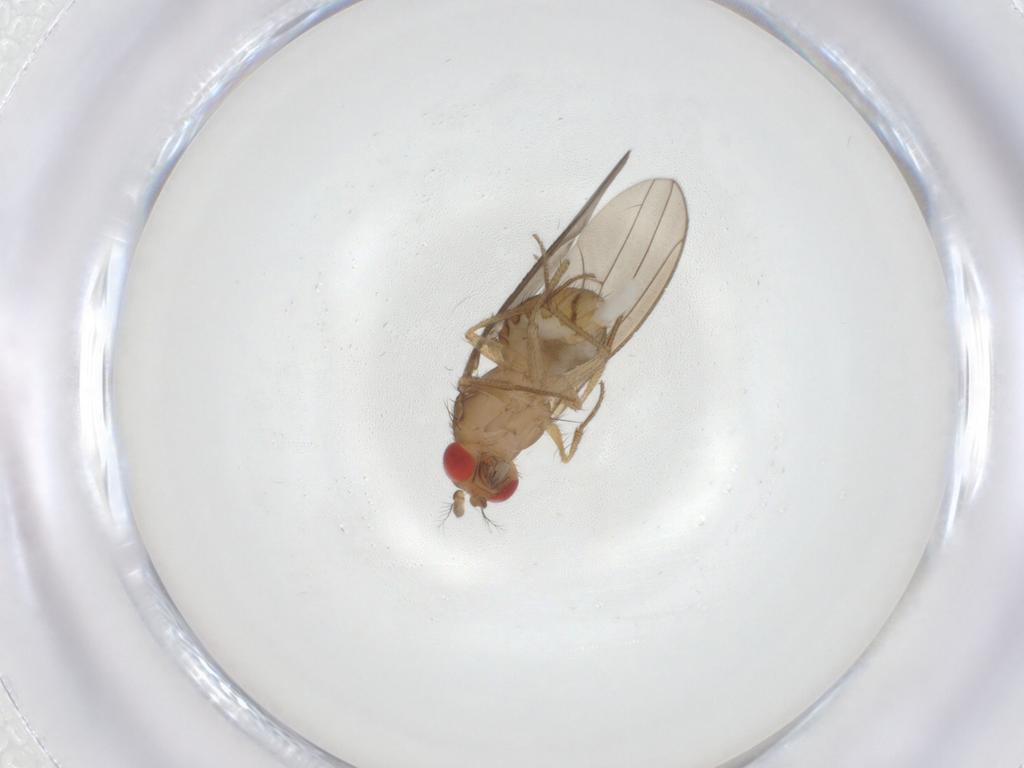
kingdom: Animalia
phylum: Arthropoda
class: Insecta
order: Diptera
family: Drosophilidae
